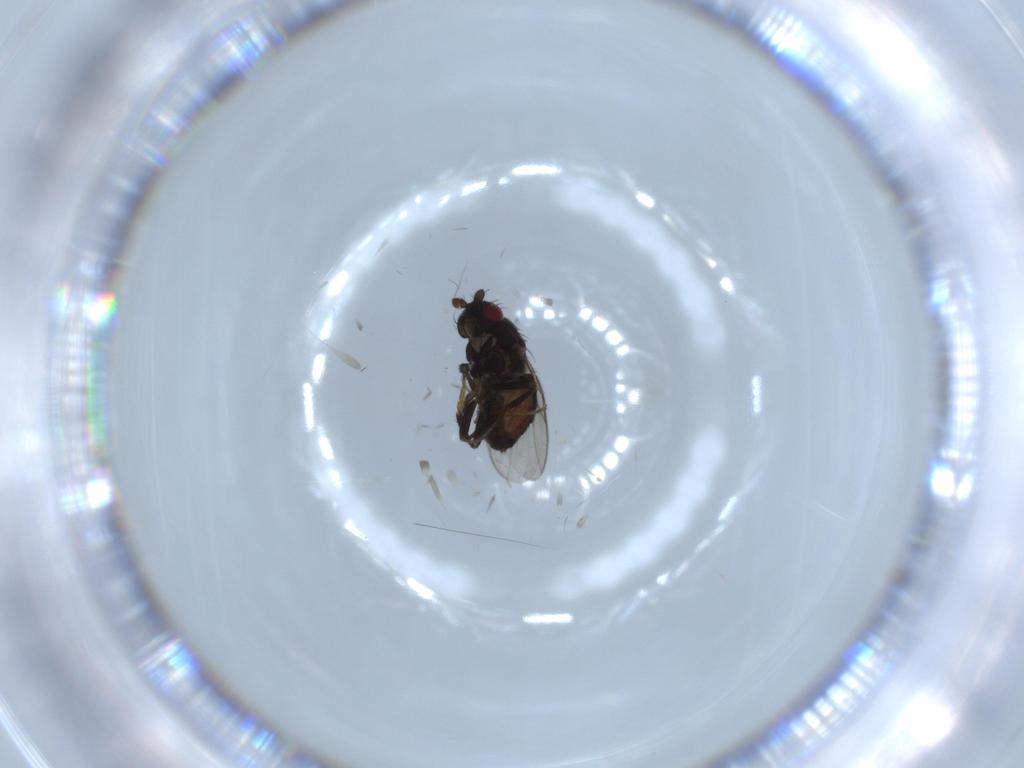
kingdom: Animalia
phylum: Arthropoda
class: Insecta
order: Diptera
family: Sphaeroceridae
